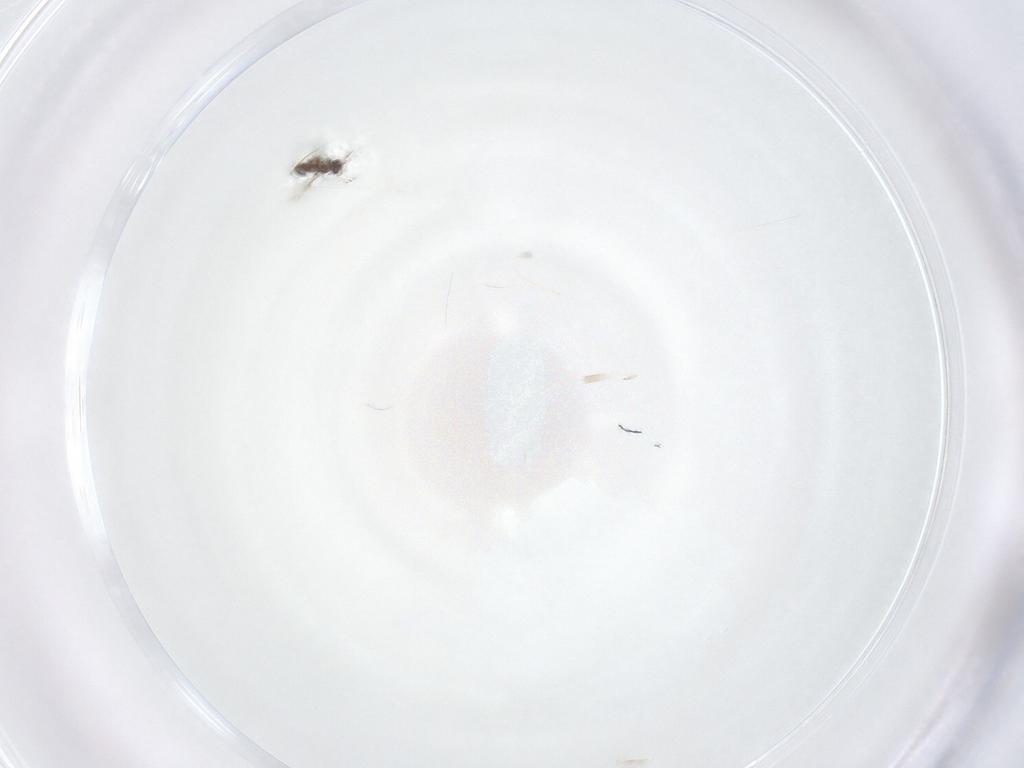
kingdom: Animalia
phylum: Arthropoda
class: Insecta
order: Diptera
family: Sciaridae
